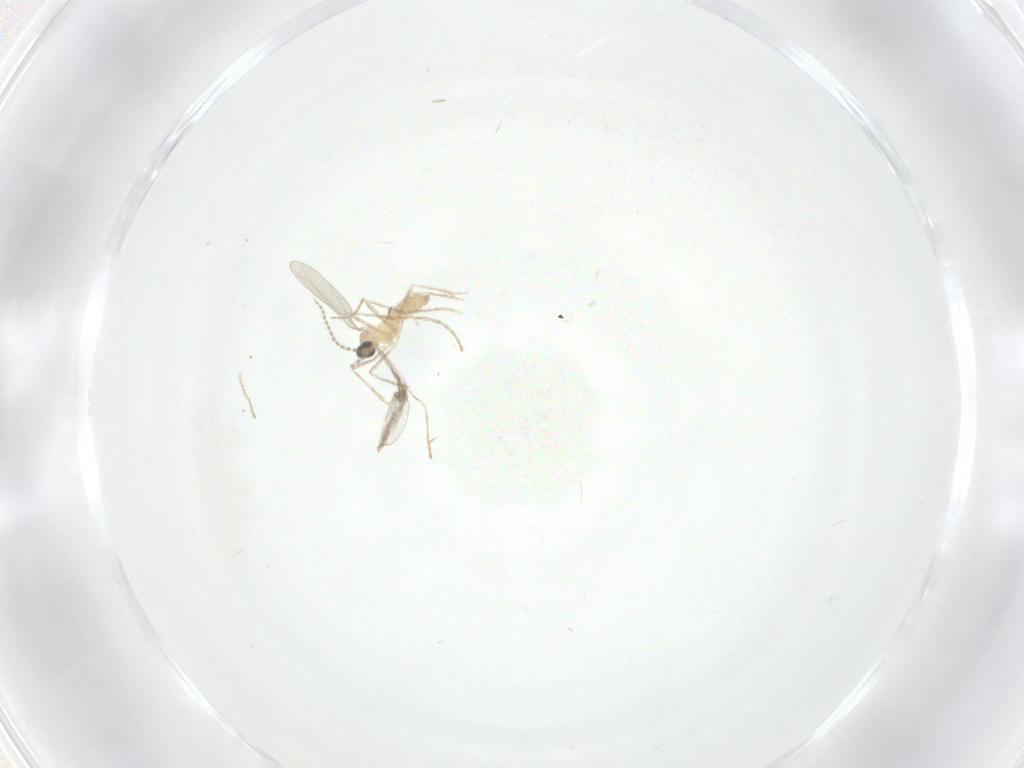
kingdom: Animalia
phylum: Arthropoda
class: Insecta
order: Diptera
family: Cecidomyiidae
